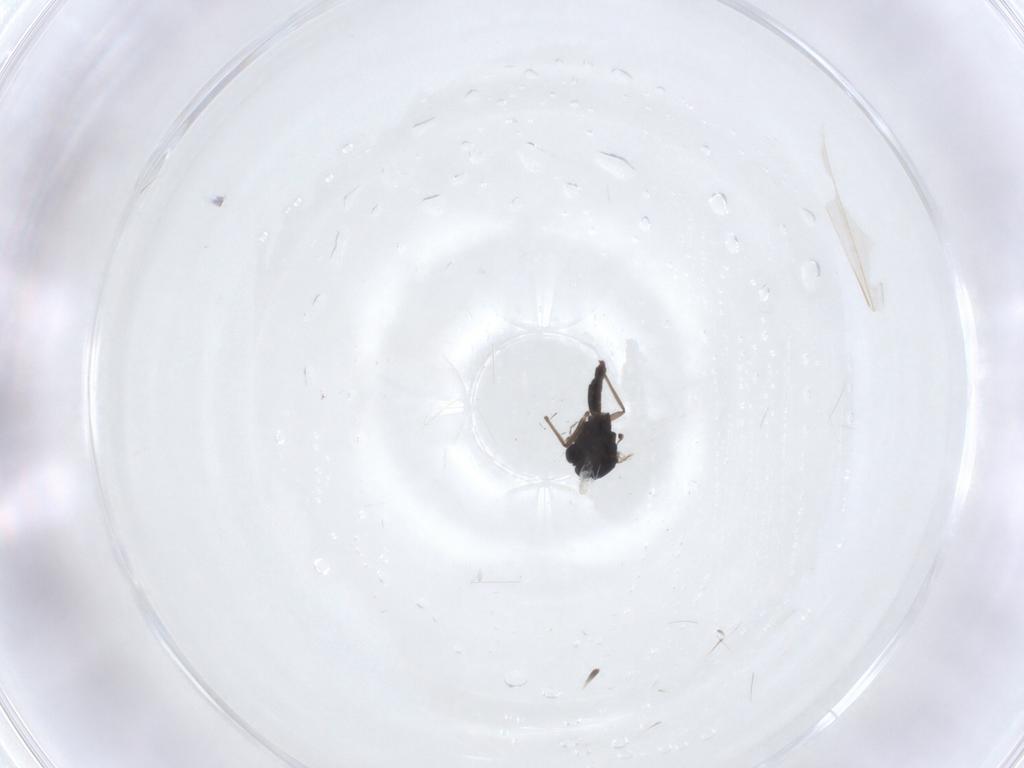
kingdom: Animalia
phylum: Arthropoda
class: Insecta
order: Diptera
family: Chironomidae
